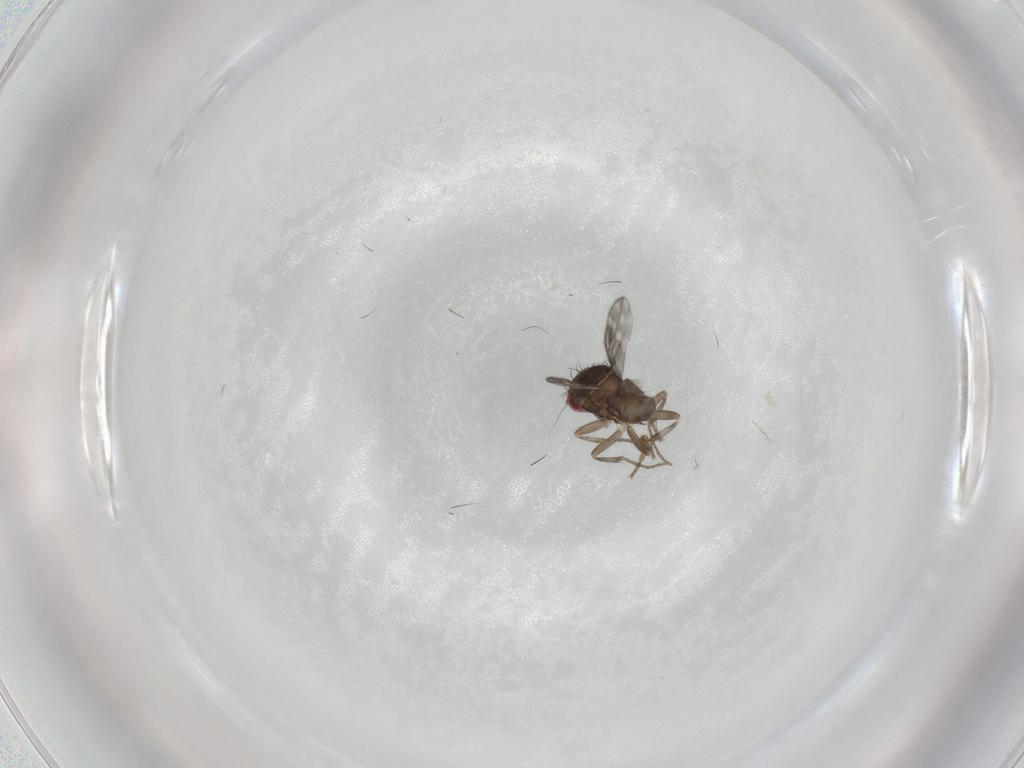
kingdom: Animalia
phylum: Arthropoda
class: Insecta
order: Diptera
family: Sphaeroceridae
